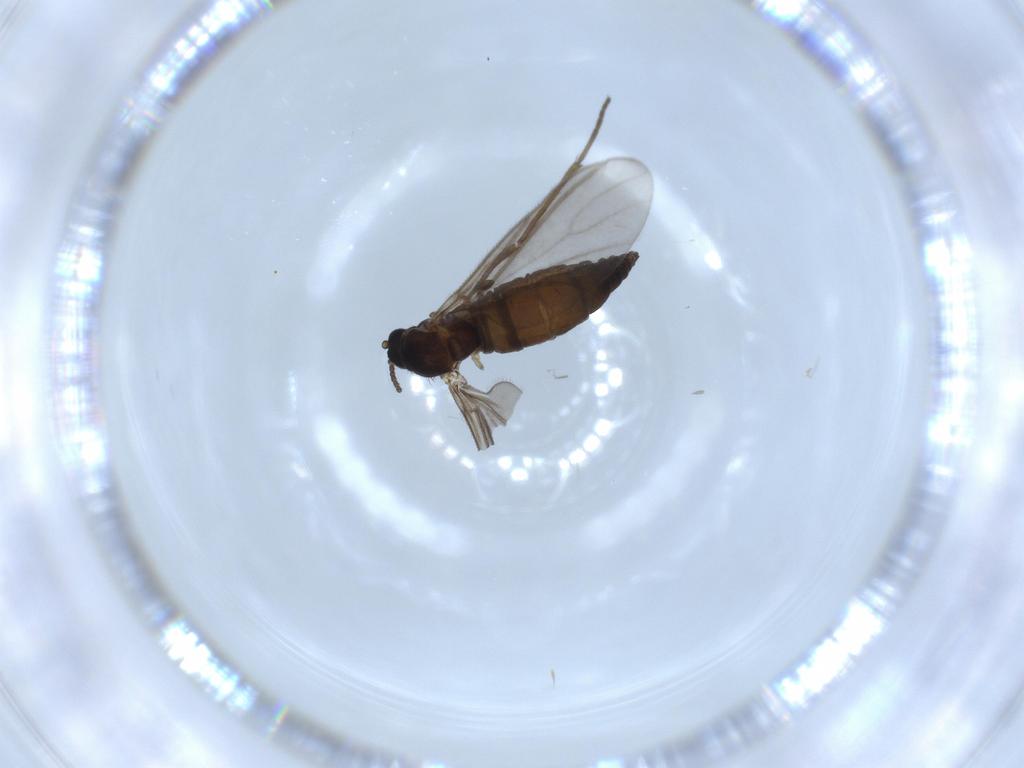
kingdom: Animalia
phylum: Arthropoda
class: Insecta
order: Diptera
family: Sciaridae
